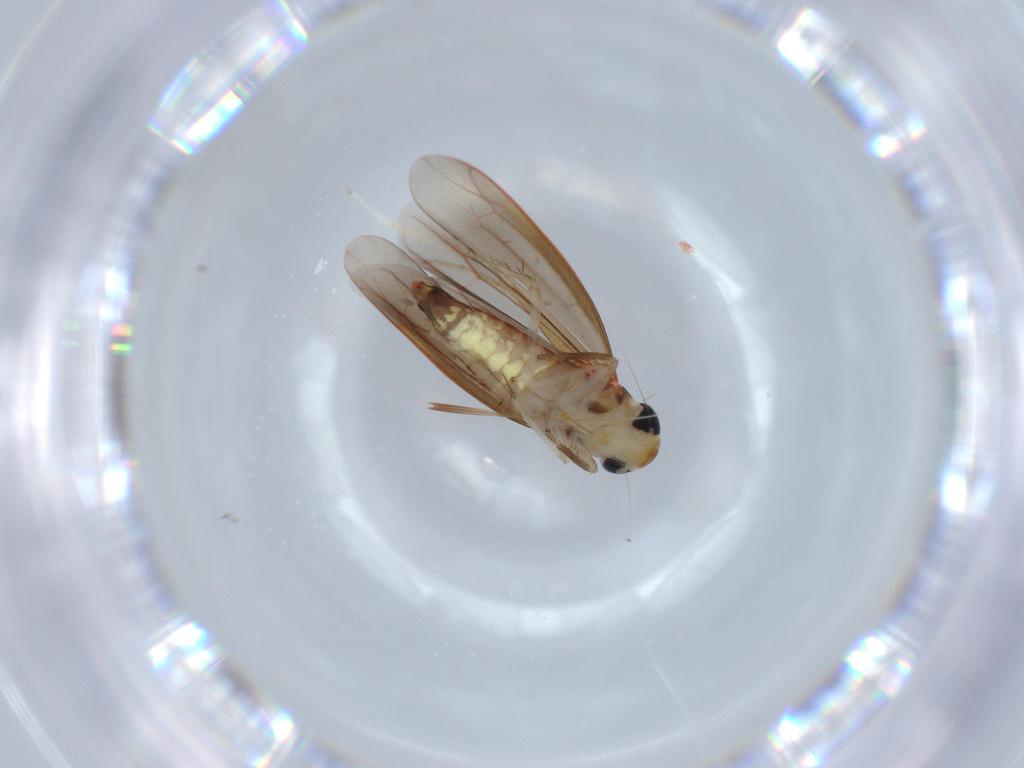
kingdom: Animalia
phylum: Arthropoda
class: Insecta
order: Hemiptera
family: Cicadellidae
